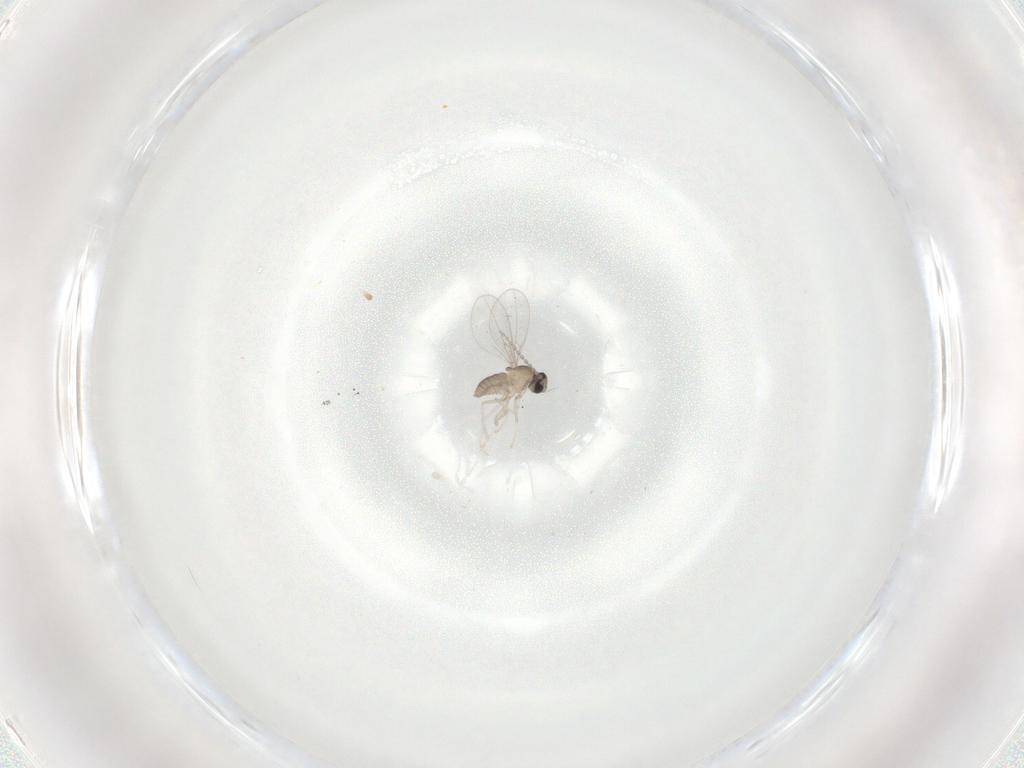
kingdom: Animalia
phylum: Arthropoda
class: Insecta
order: Diptera
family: Cecidomyiidae
